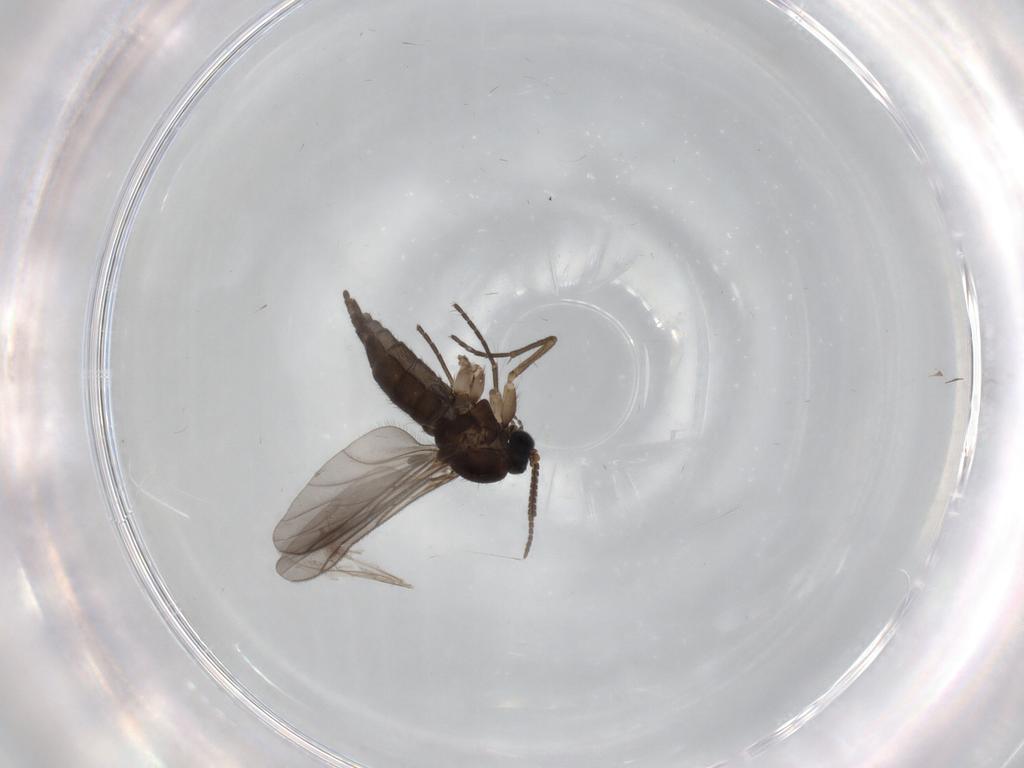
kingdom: Animalia
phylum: Arthropoda
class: Insecta
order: Diptera
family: Sciaridae
